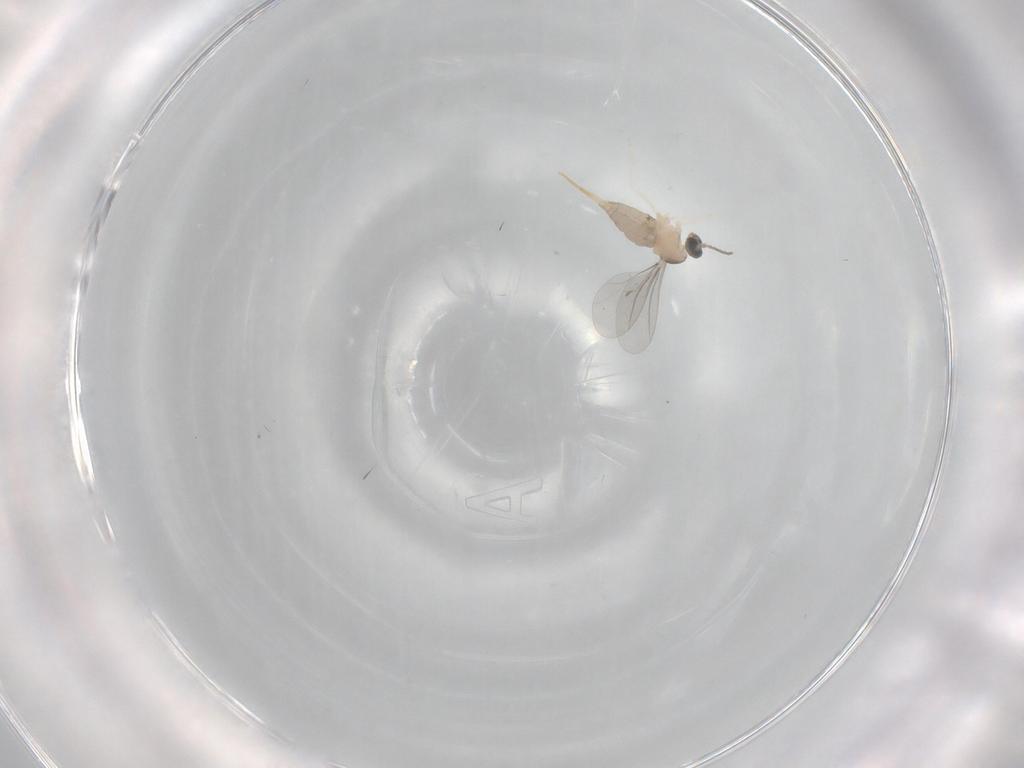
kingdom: Animalia
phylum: Arthropoda
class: Insecta
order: Diptera
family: Cecidomyiidae
